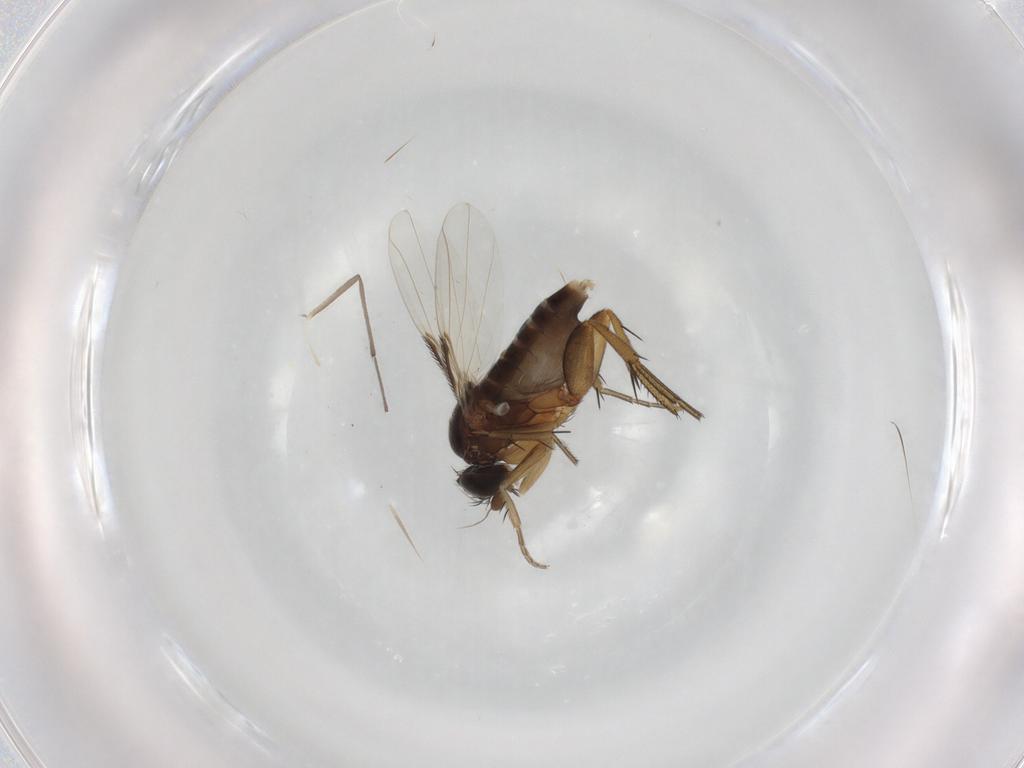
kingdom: Animalia
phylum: Arthropoda
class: Insecta
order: Diptera
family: Phoridae
